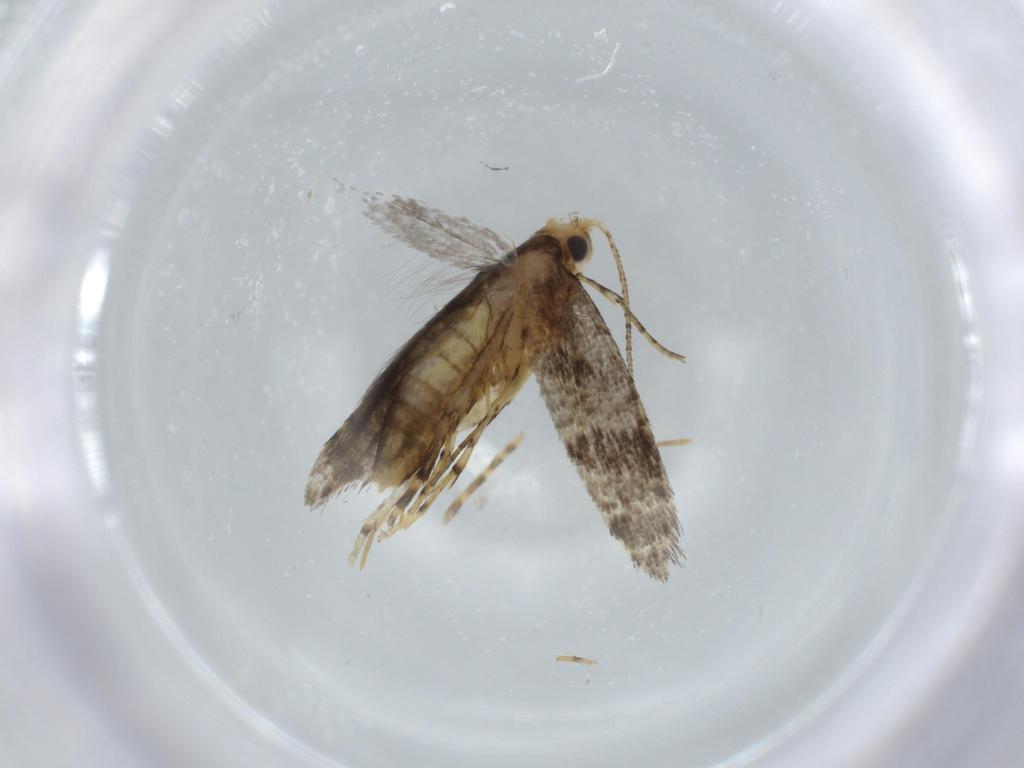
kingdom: Animalia
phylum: Arthropoda
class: Insecta
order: Lepidoptera
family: Argyresthiidae
